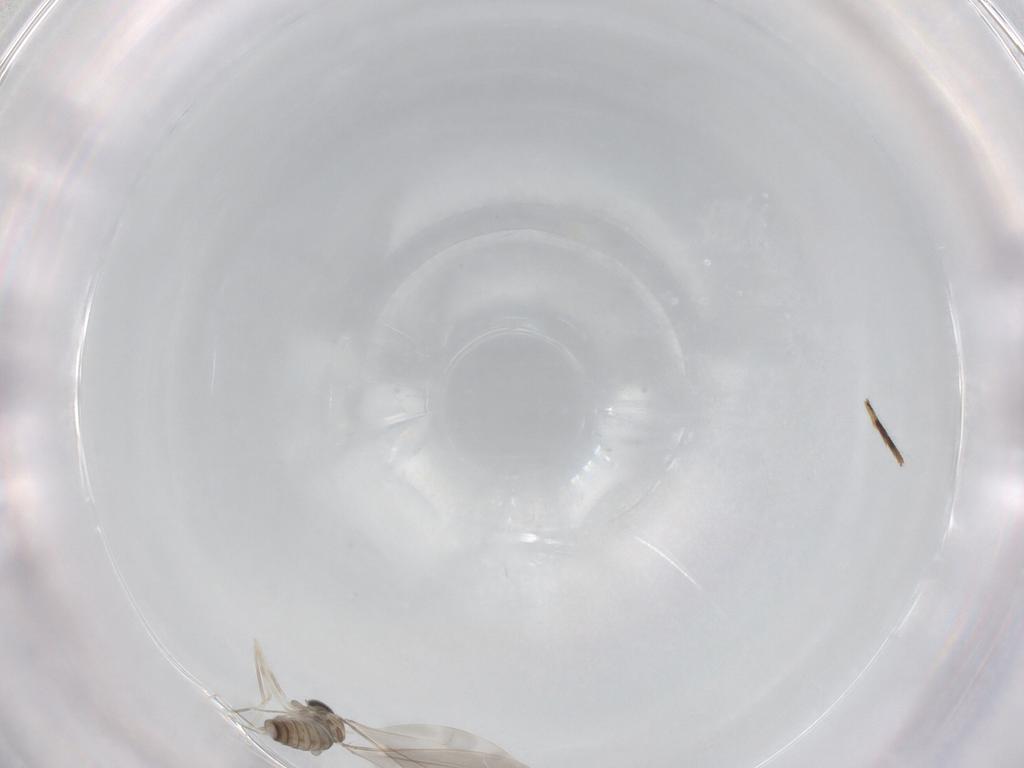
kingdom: Animalia
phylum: Arthropoda
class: Insecta
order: Diptera
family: Cecidomyiidae
